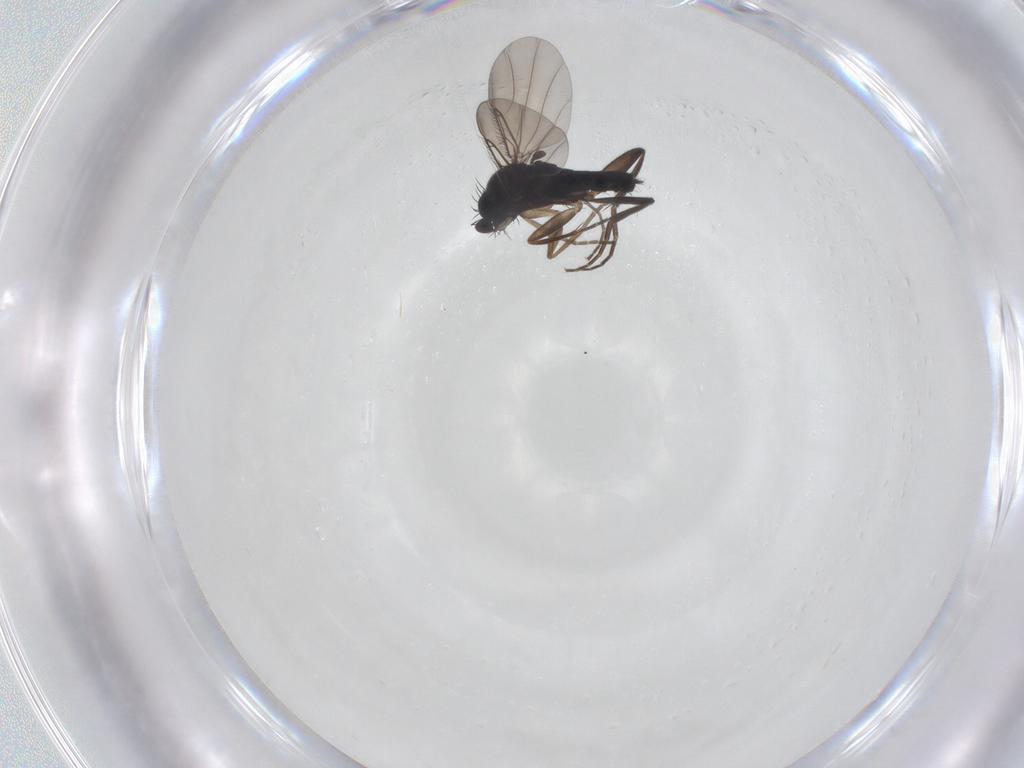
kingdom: Animalia
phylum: Arthropoda
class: Insecta
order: Diptera
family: Phoridae
